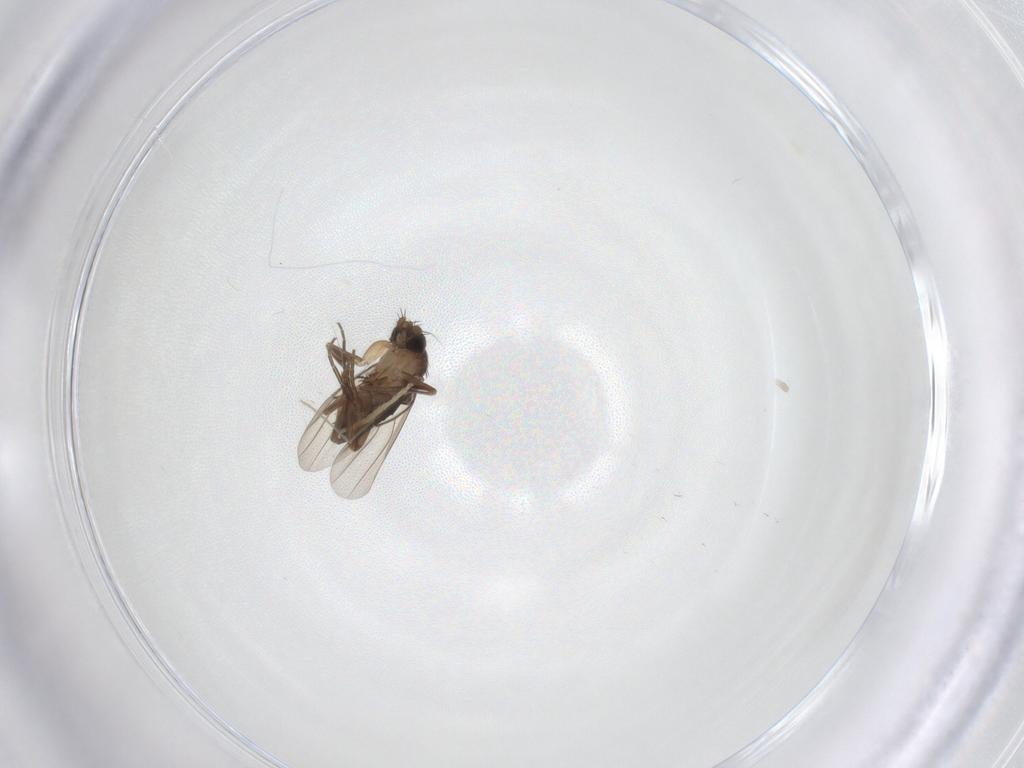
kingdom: Animalia
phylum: Arthropoda
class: Insecta
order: Diptera
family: Phoridae
